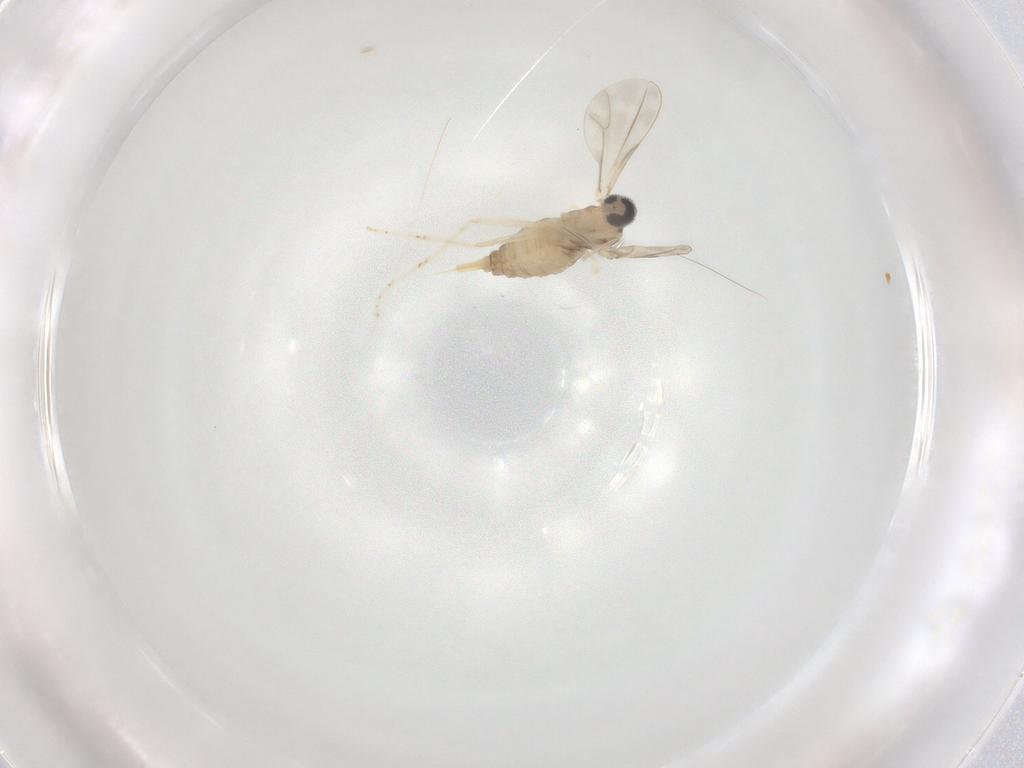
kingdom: Animalia
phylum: Arthropoda
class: Insecta
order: Diptera
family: Cecidomyiidae
